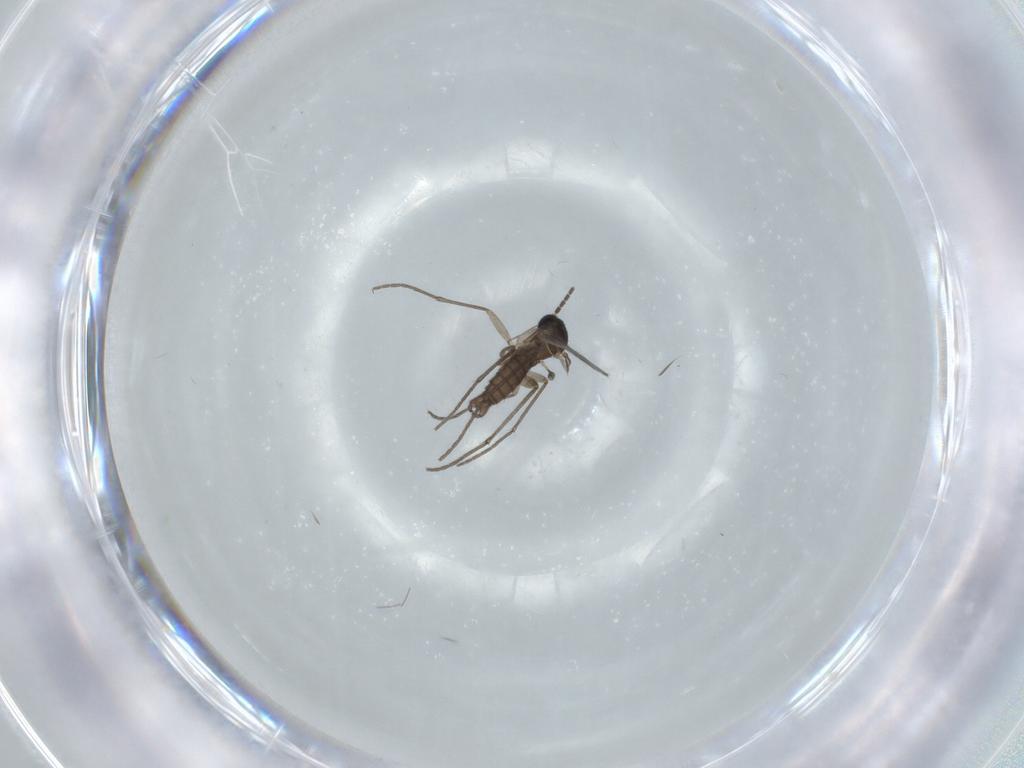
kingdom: Animalia
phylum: Arthropoda
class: Insecta
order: Diptera
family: Sciaridae
